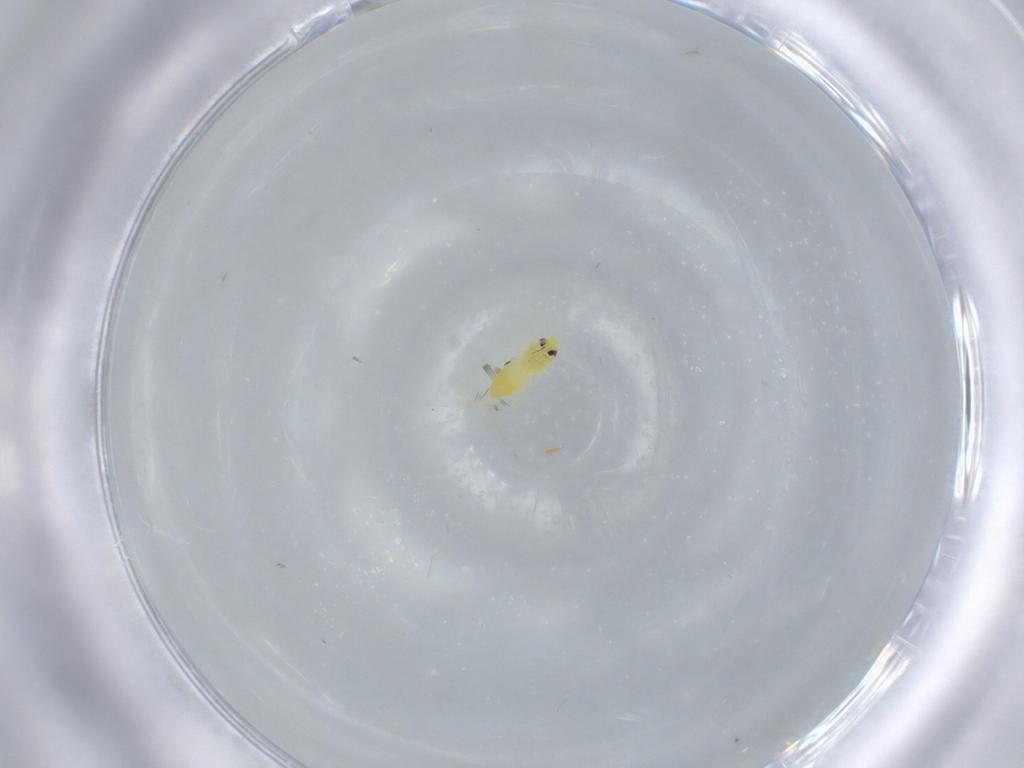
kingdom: Animalia
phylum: Arthropoda
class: Insecta
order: Hemiptera
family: Aleyrodidae
